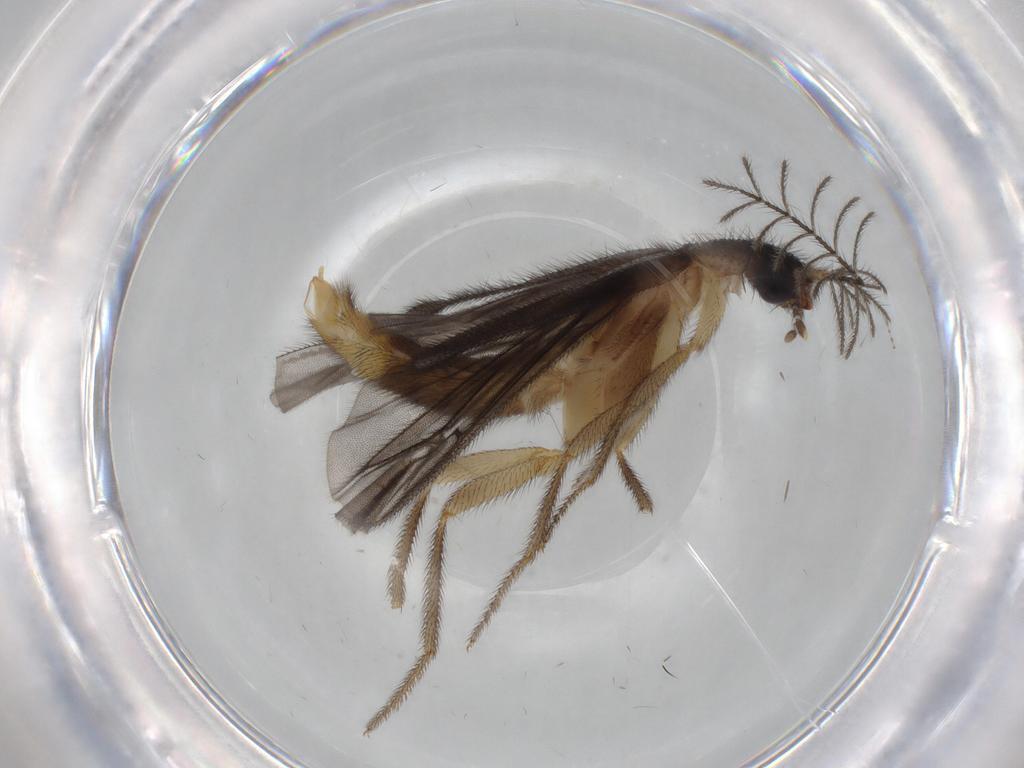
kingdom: Animalia
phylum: Arthropoda
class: Insecta
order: Coleoptera
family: Phengodidae
